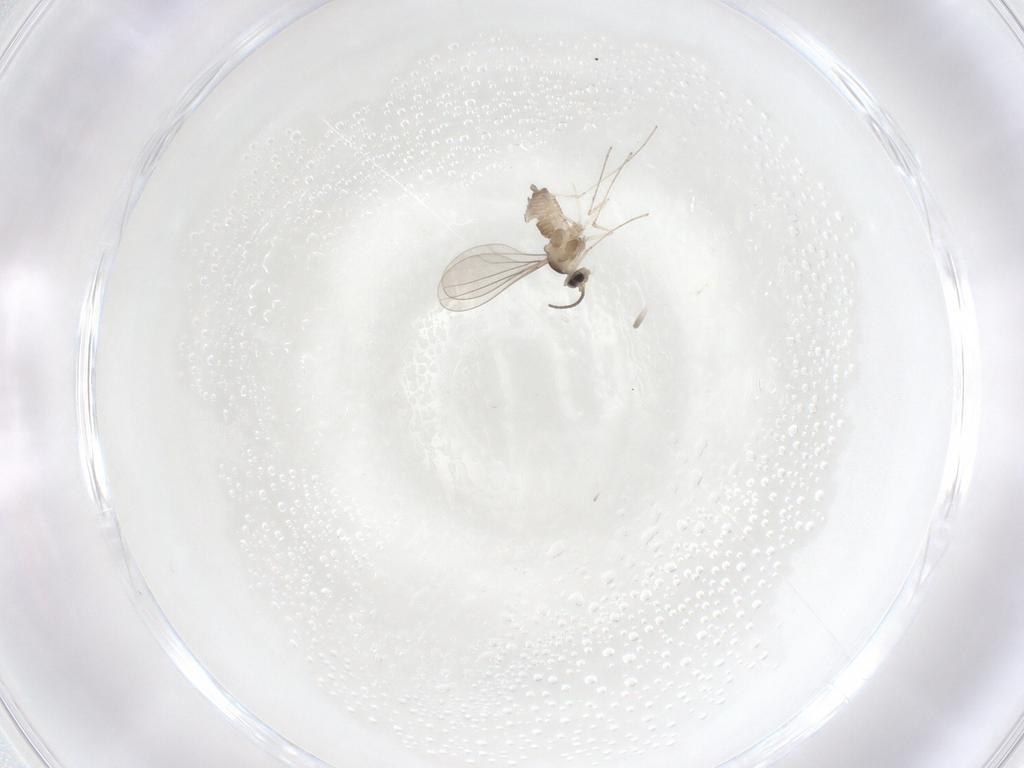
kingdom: Animalia
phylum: Arthropoda
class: Insecta
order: Diptera
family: Cecidomyiidae
